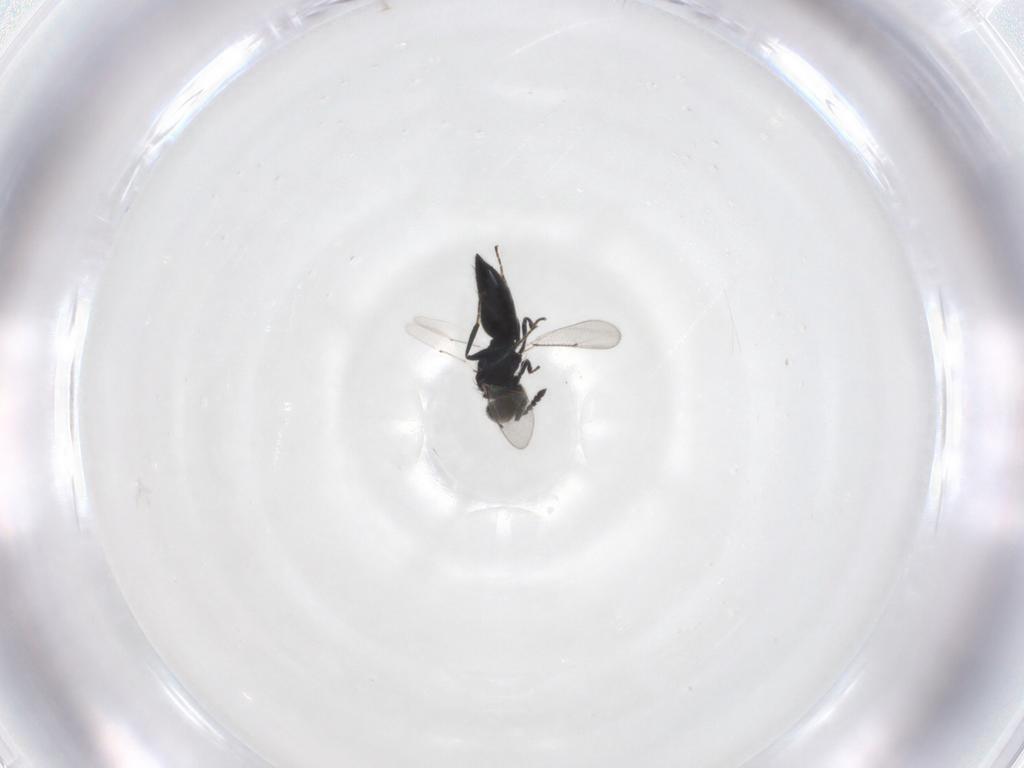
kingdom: Animalia
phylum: Arthropoda
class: Insecta
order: Hymenoptera
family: Eulophidae
